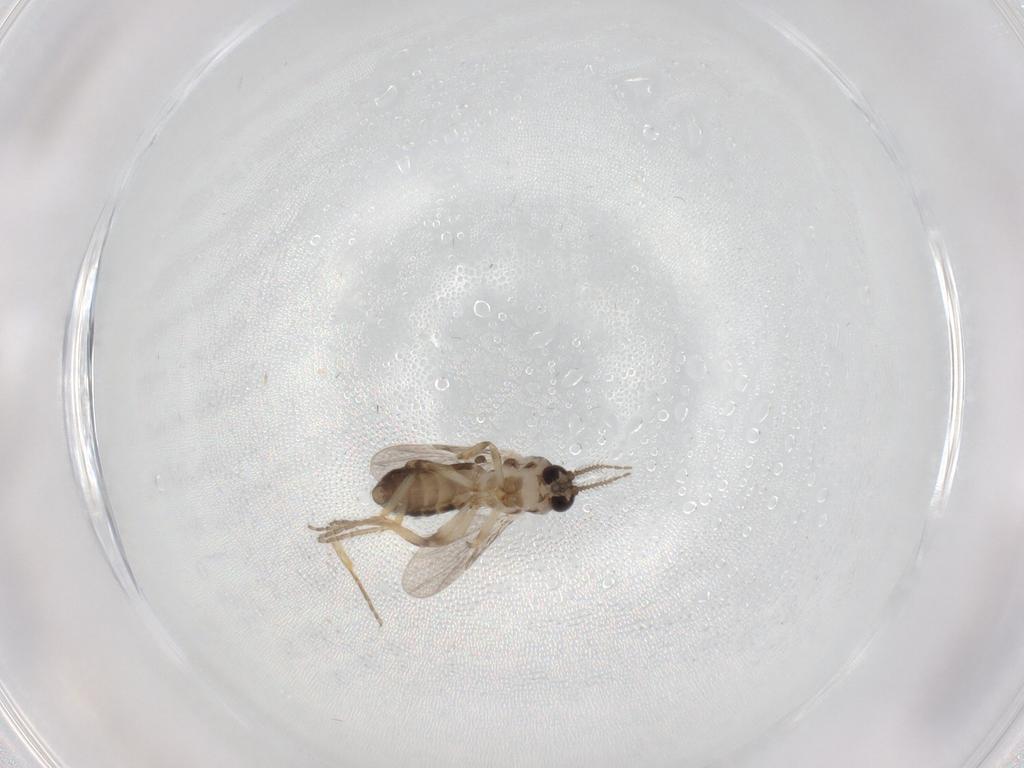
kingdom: Animalia
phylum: Arthropoda
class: Insecta
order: Diptera
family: Ceratopogonidae
